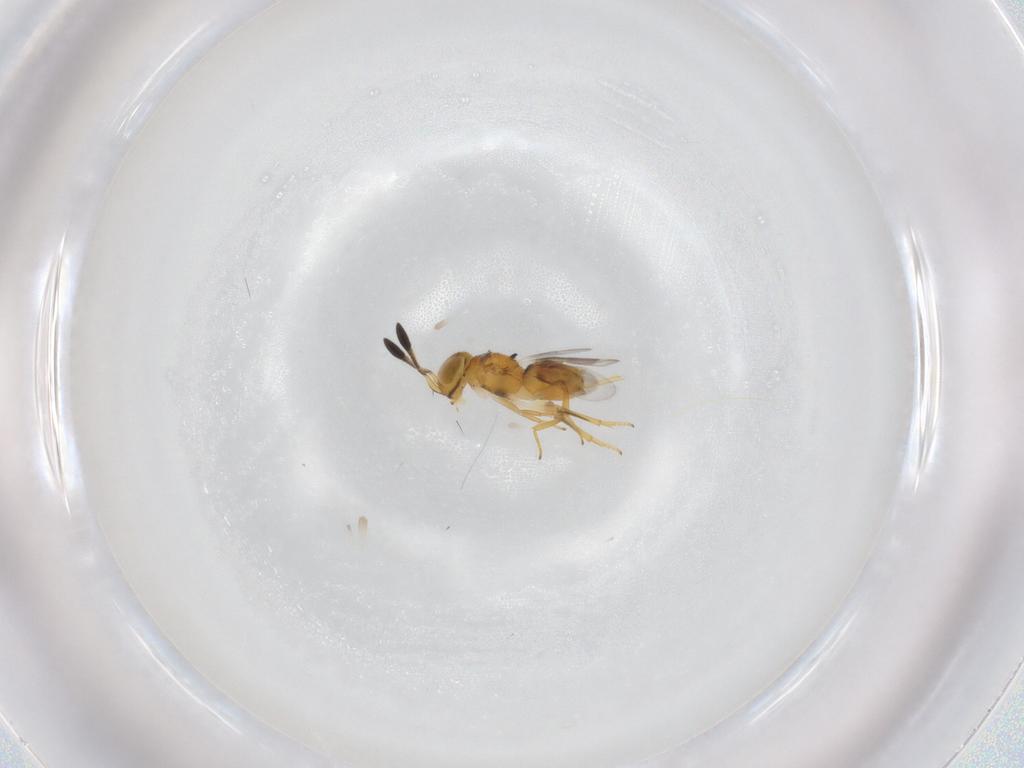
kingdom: Animalia
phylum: Arthropoda
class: Insecta
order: Hymenoptera
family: Encyrtidae
